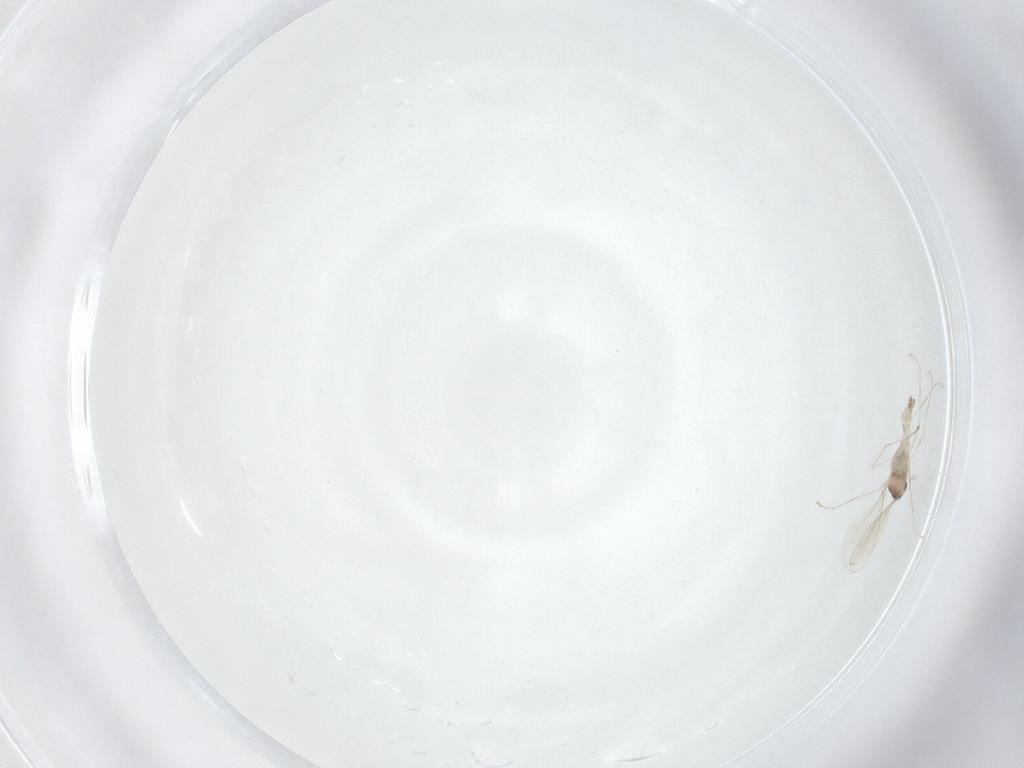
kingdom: Animalia
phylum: Arthropoda
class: Insecta
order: Diptera
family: Cecidomyiidae
